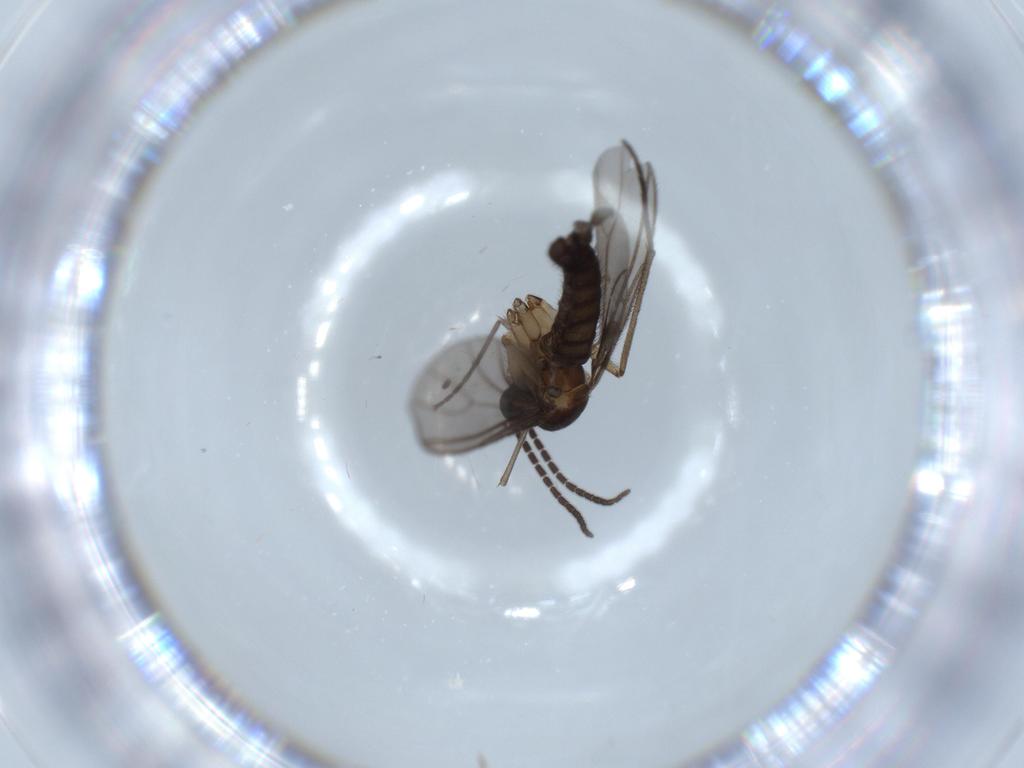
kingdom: Animalia
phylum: Arthropoda
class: Insecta
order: Diptera
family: Sciaridae
